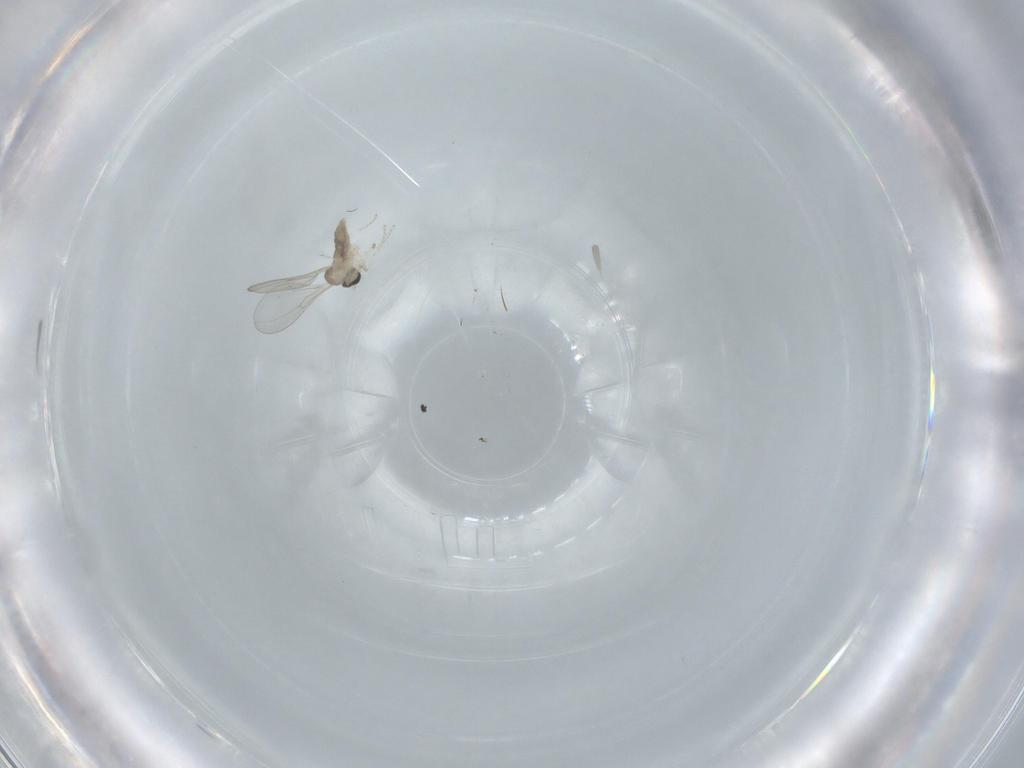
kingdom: Animalia
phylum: Arthropoda
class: Insecta
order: Diptera
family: Cecidomyiidae
